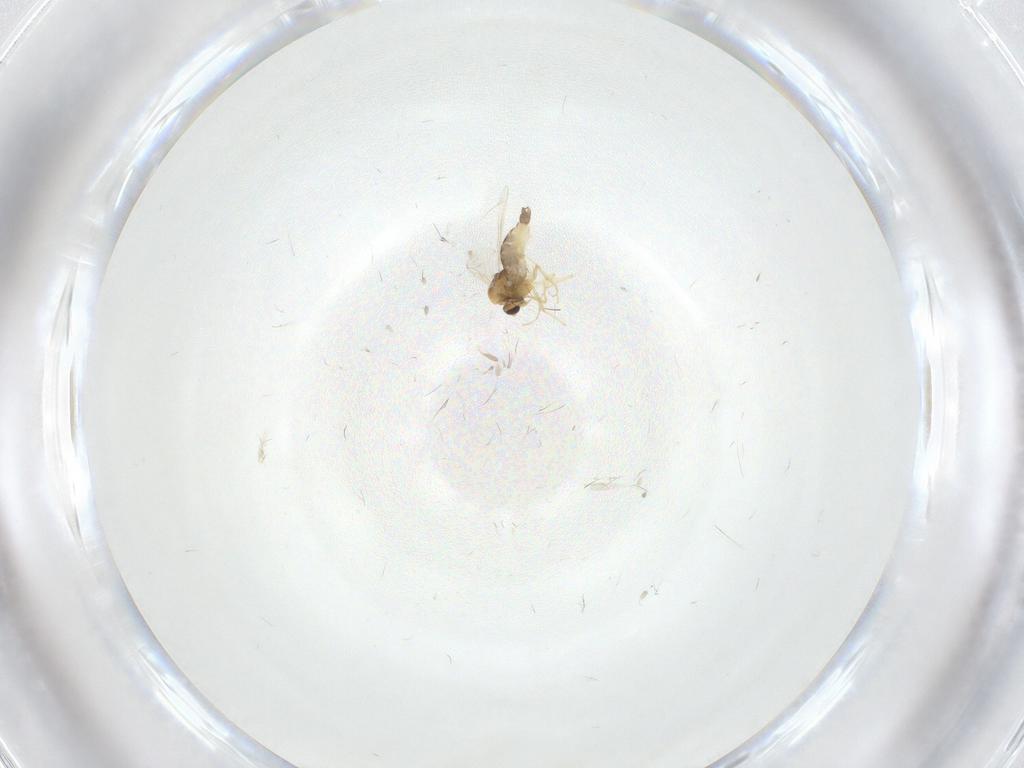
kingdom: Animalia
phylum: Arthropoda
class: Insecta
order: Diptera
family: Chironomidae
